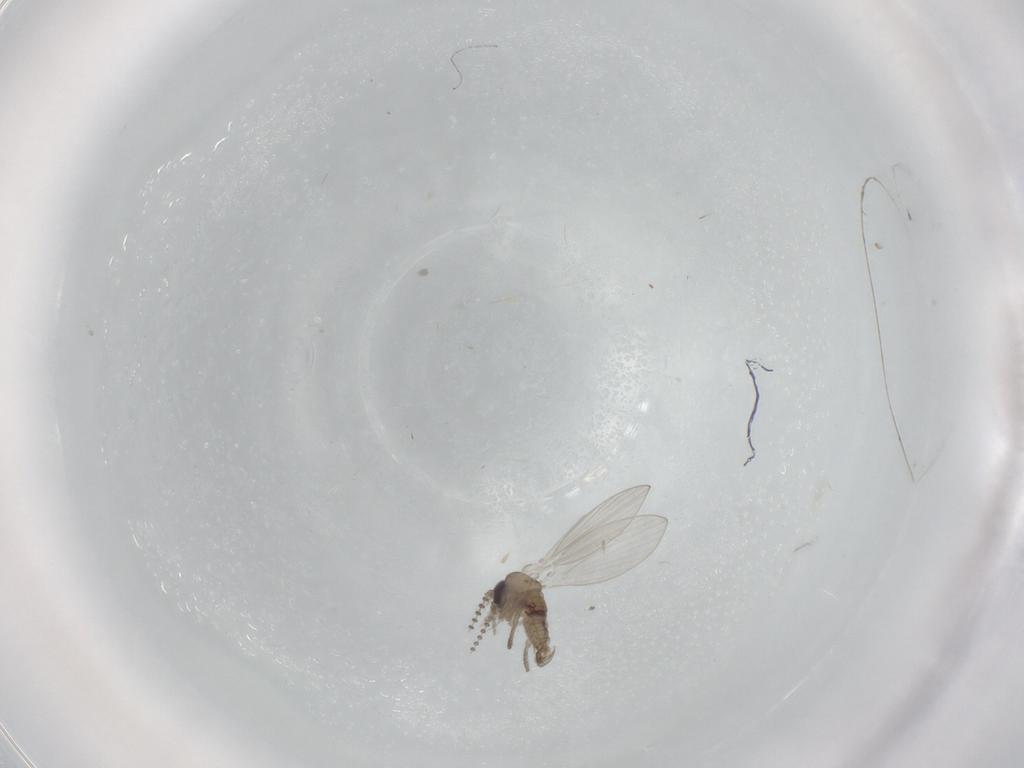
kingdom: Animalia
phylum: Arthropoda
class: Insecta
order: Diptera
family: Psychodidae
